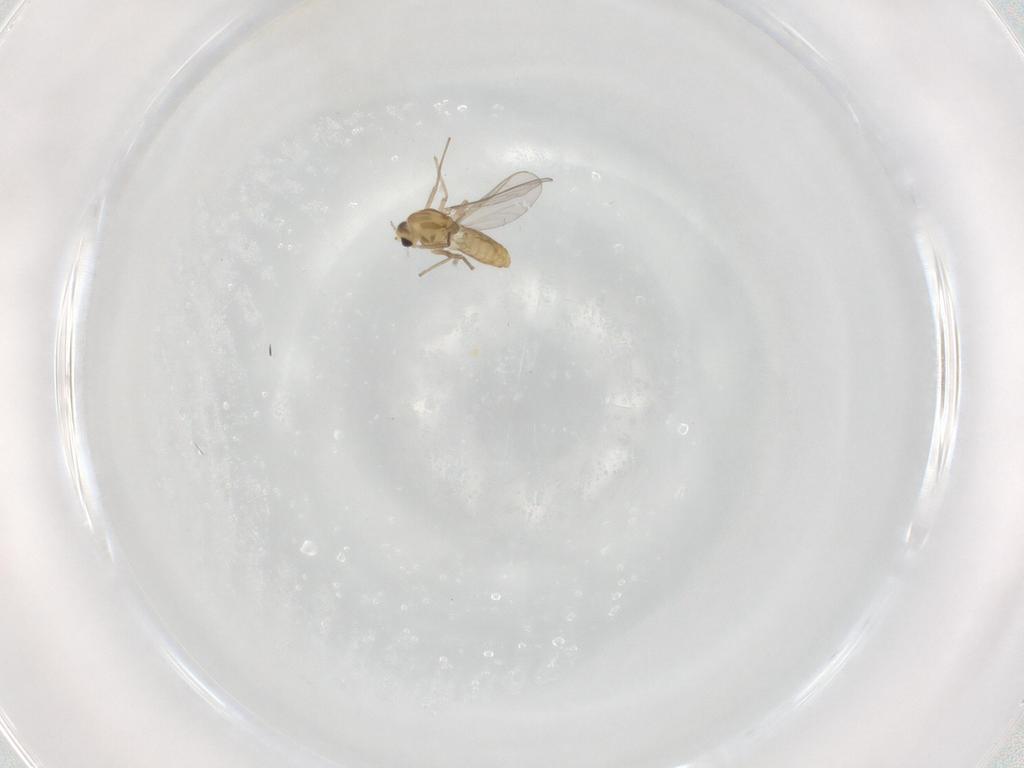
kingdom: Animalia
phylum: Arthropoda
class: Insecta
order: Diptera
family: Chironomidae
